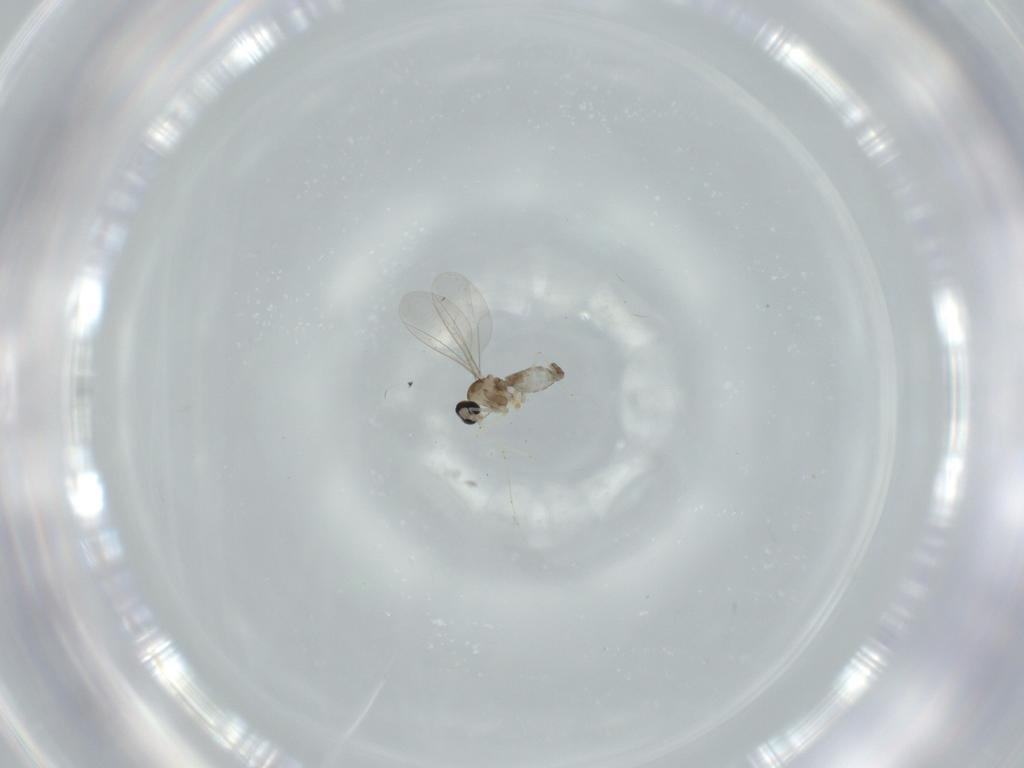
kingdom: Animalia
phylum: Arthropoda
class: Insecta
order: Diptera
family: Cecidomyiidae
